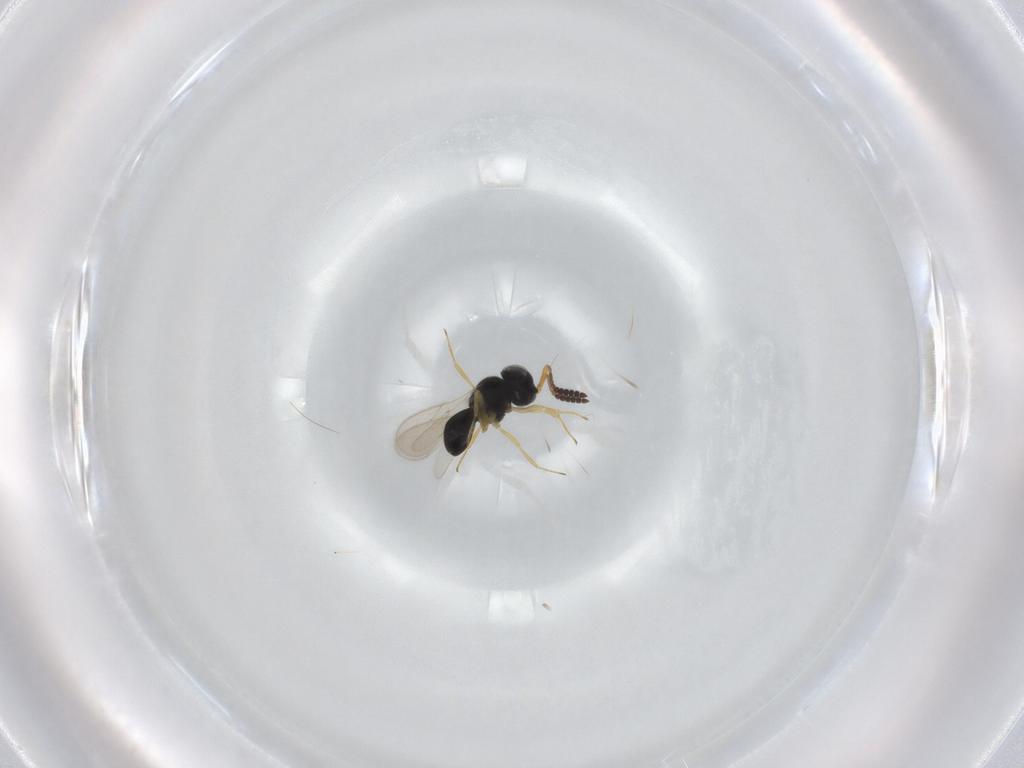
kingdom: Animalia
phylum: Arthropoda
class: Insecta
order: Hymenoptera
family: Scelionidae
